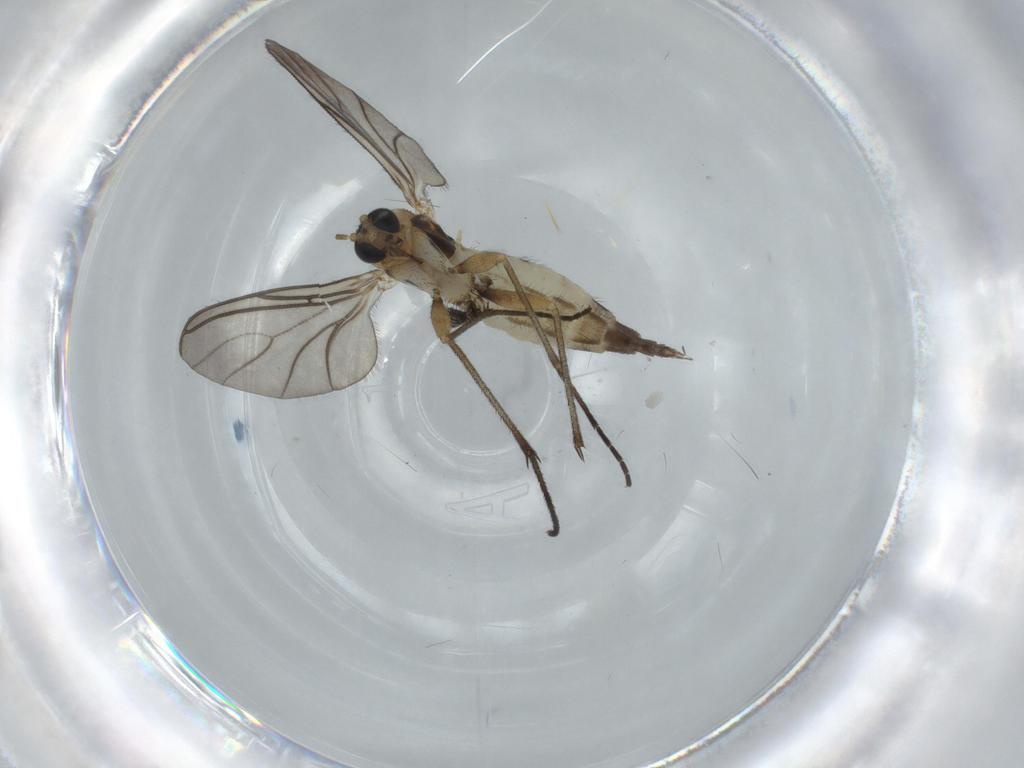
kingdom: Animalia
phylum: Arthropoda
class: Insecta
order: Diptera
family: Sciaridae
